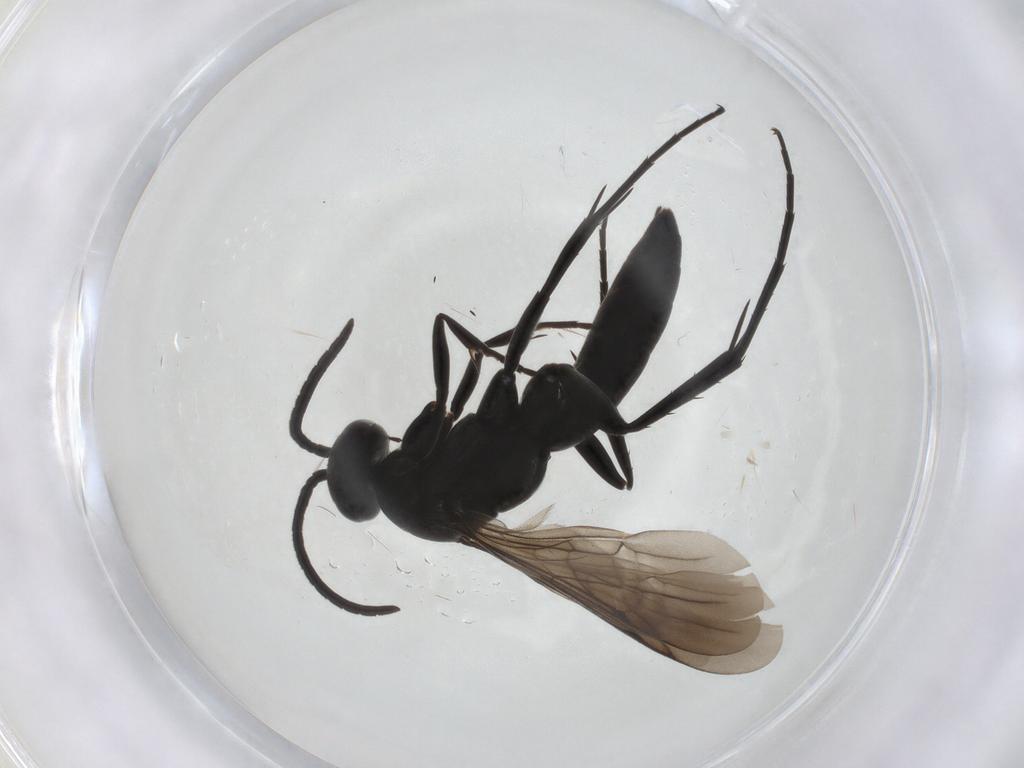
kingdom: Animalia
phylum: Arthropoda
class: Insecta
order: Hymenoptera
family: Pompilidae
